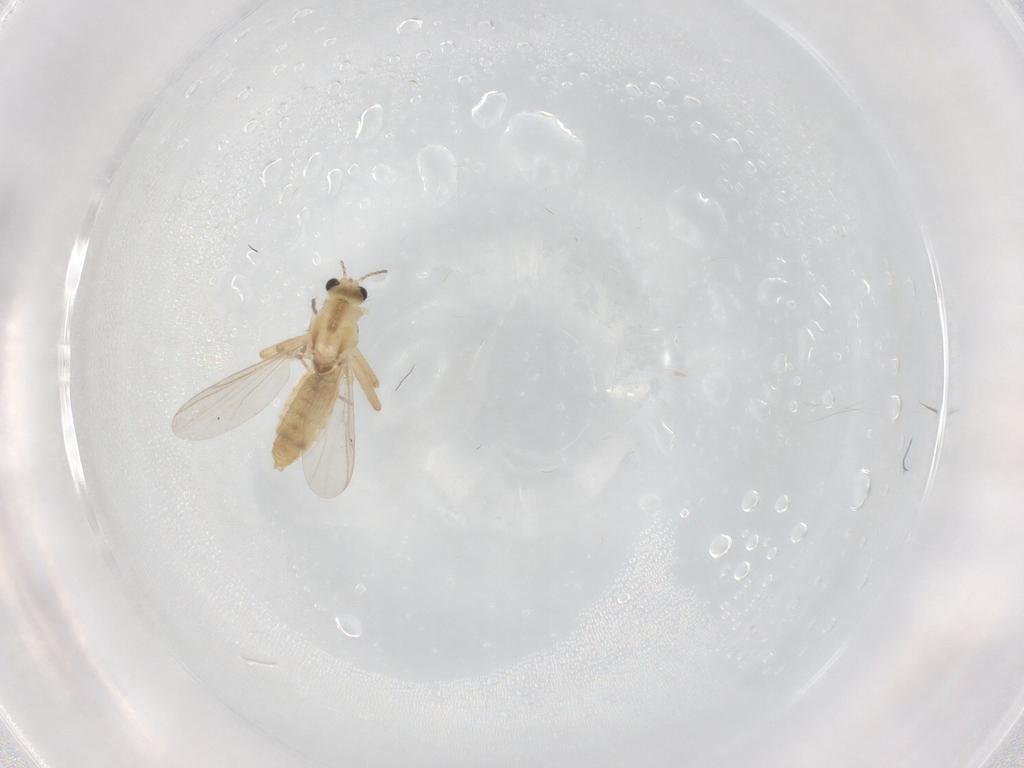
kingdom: Animalia
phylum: Arthropoda
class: Insecta
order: Diptera
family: Chironomidae
